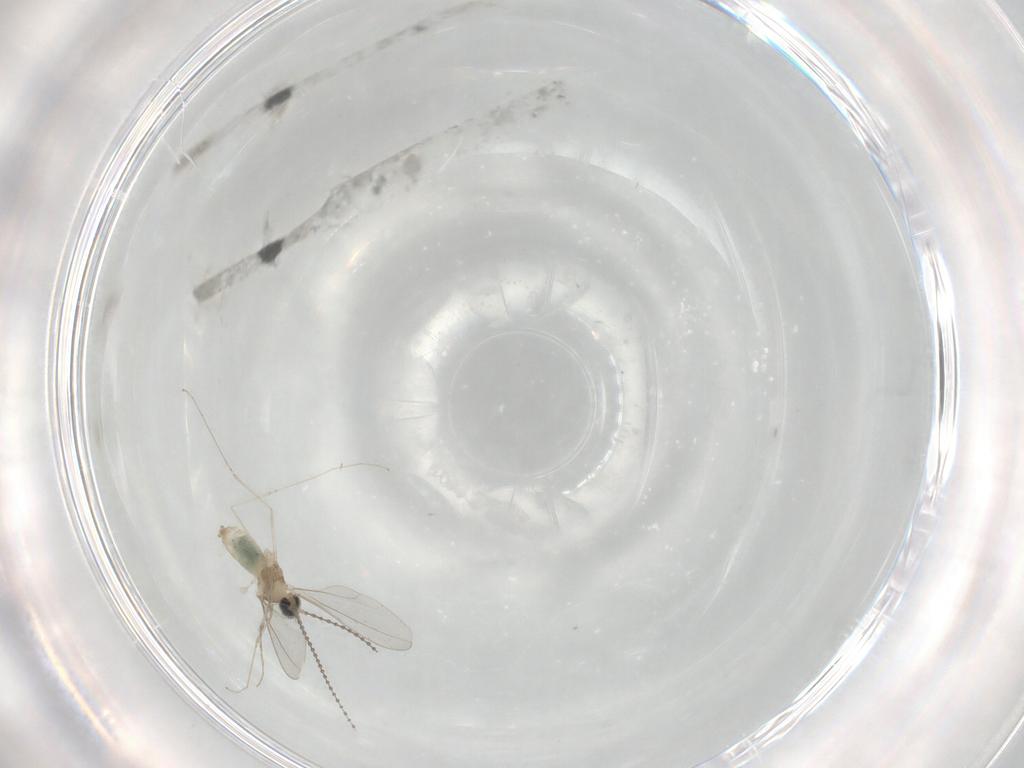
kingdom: Animalia
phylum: Arthropoda
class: Insecta
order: Diptera
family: Cecidomyiidae
